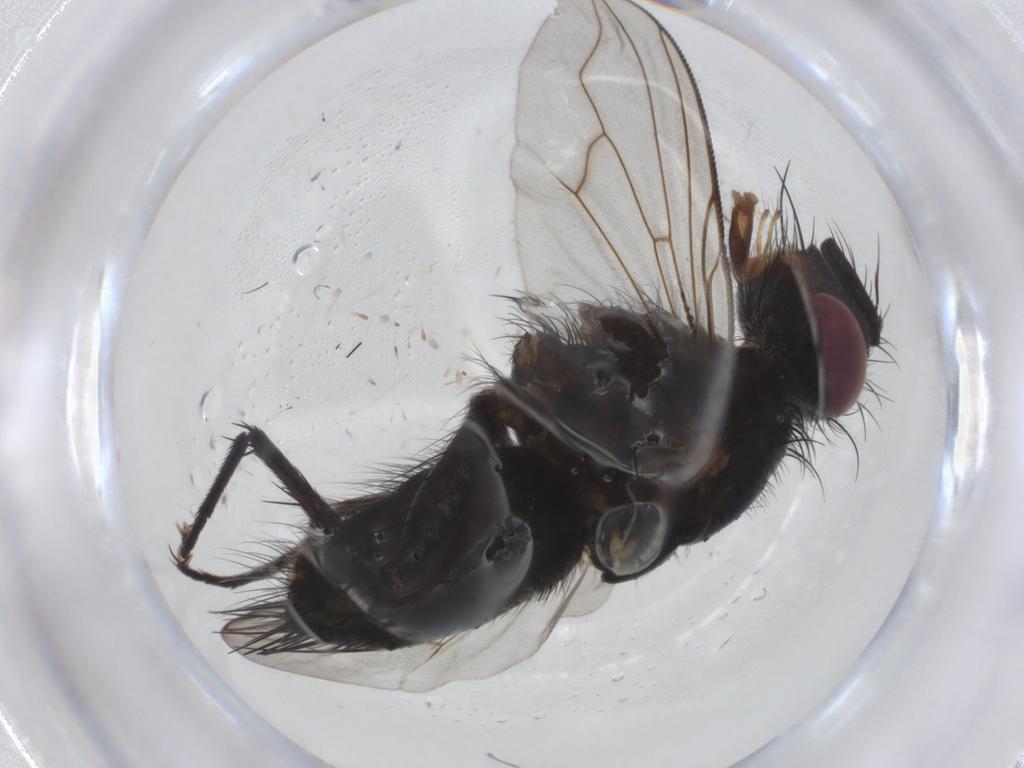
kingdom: Animalia
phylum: Arthropoda
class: Insecta
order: Diptera
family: Tachinidae
